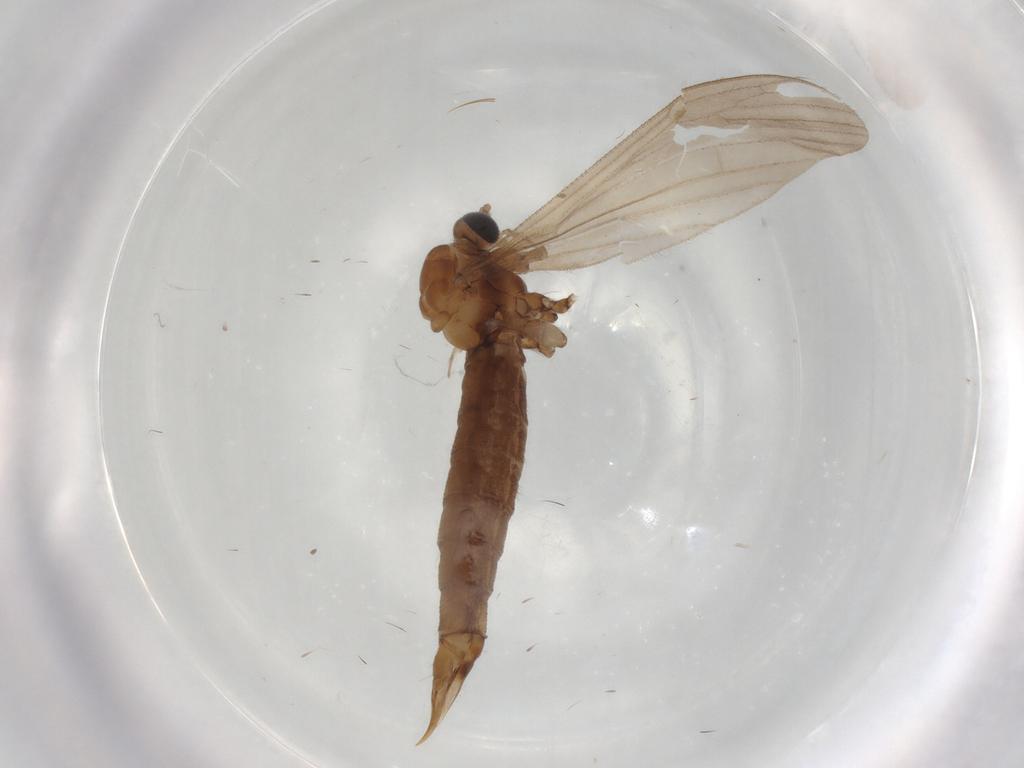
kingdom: Animalia
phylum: Arthropoda
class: Insecta
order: Diptera
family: Limoniidae
